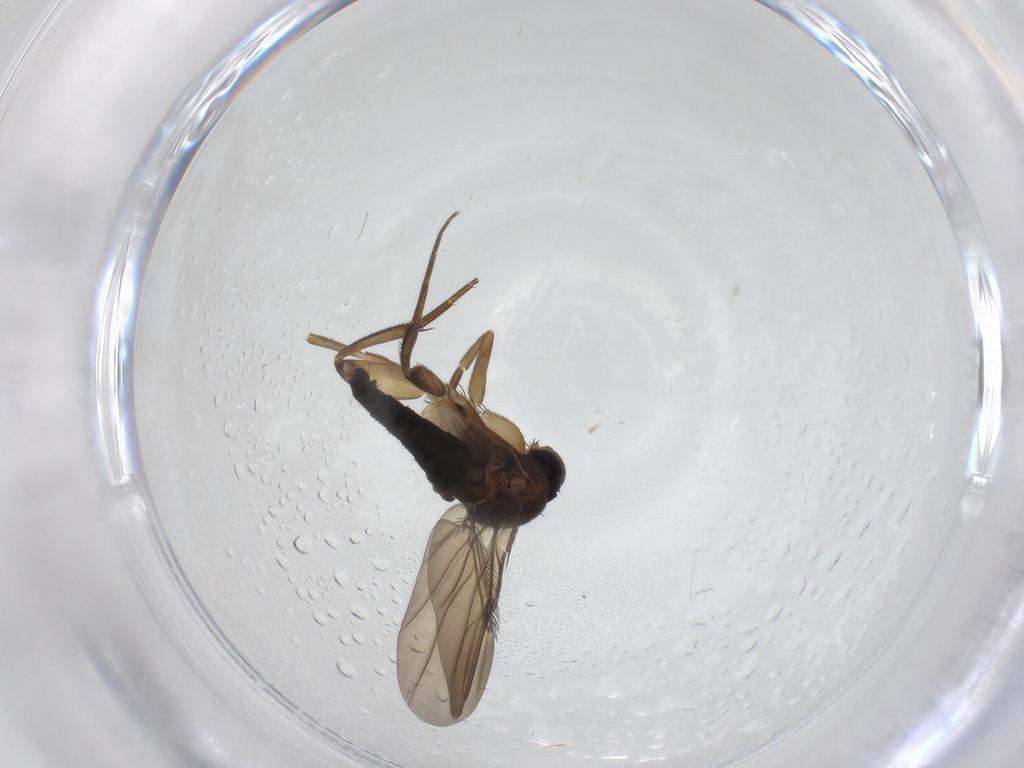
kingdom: Animalia
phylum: Arthropoda
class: Insecta
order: Diptera
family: Phoridae
